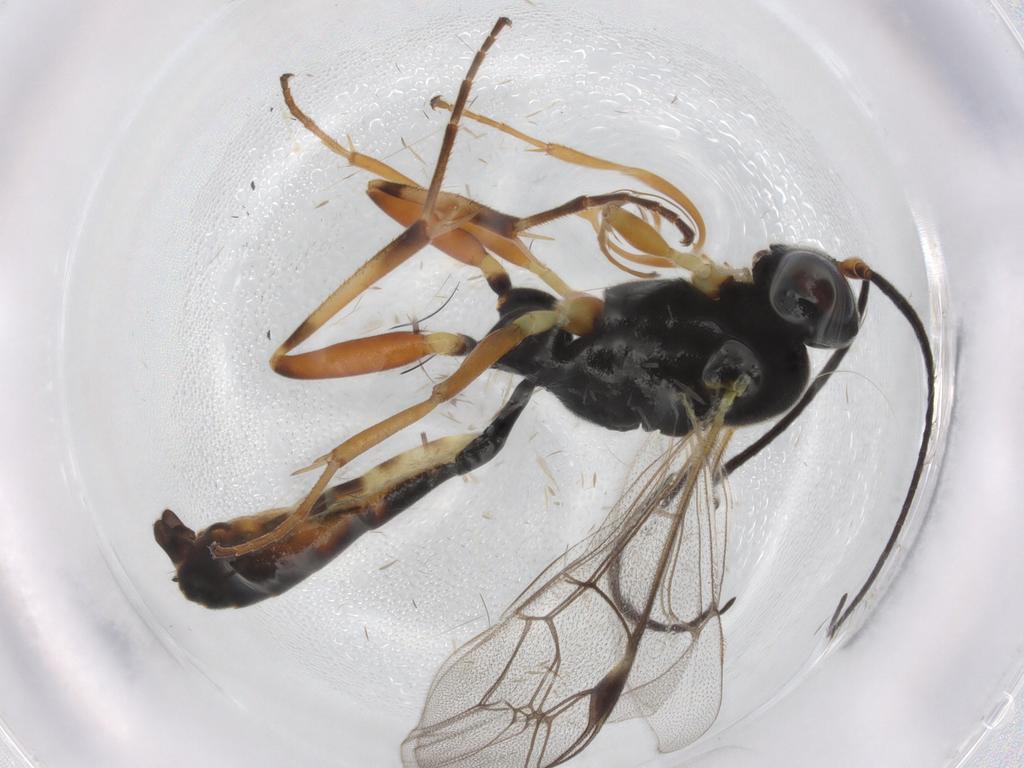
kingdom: Animalia
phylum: Arthropoda
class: Insecta
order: Hymenoptera
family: Ichneumonidae
